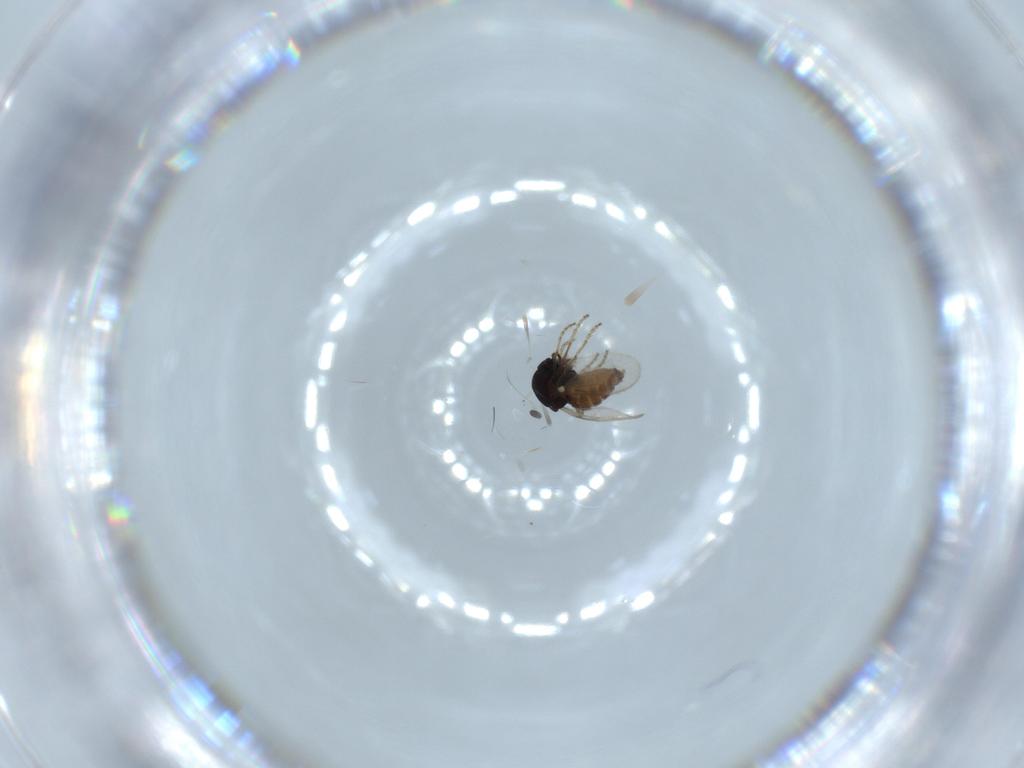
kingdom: Animalia
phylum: Arthropoda
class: Insecta
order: Diptera
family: Ceratopogonidae
